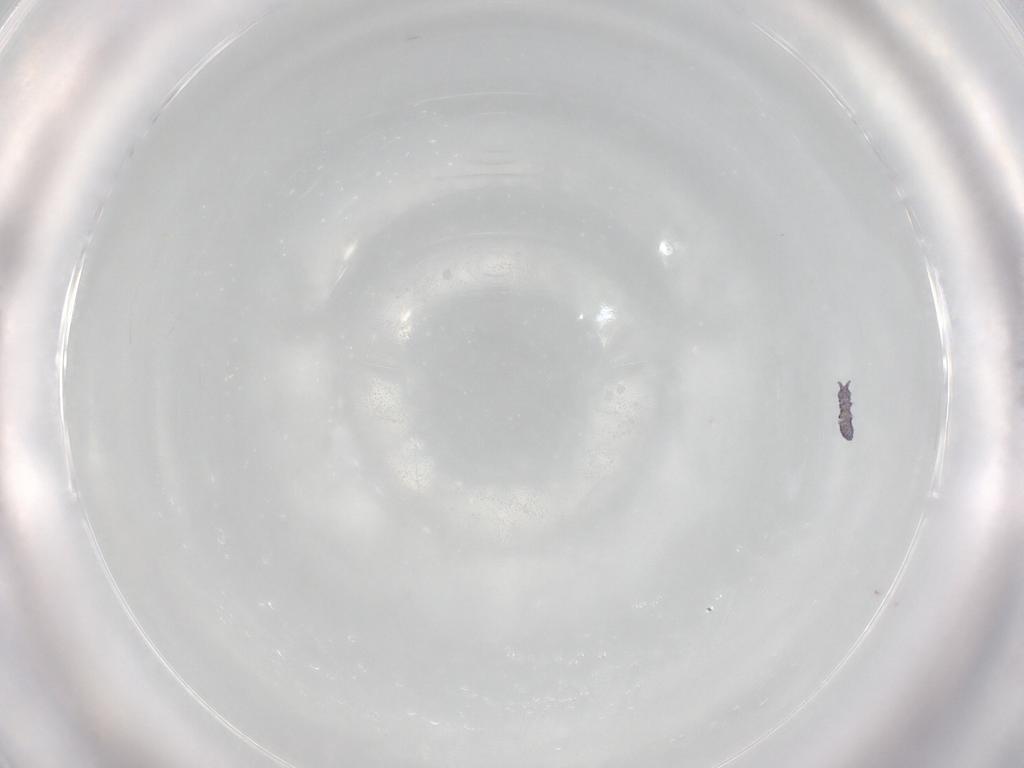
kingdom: Animalia
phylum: Arthropoda
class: Collembola
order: Poduromorpha
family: Neanuridae
